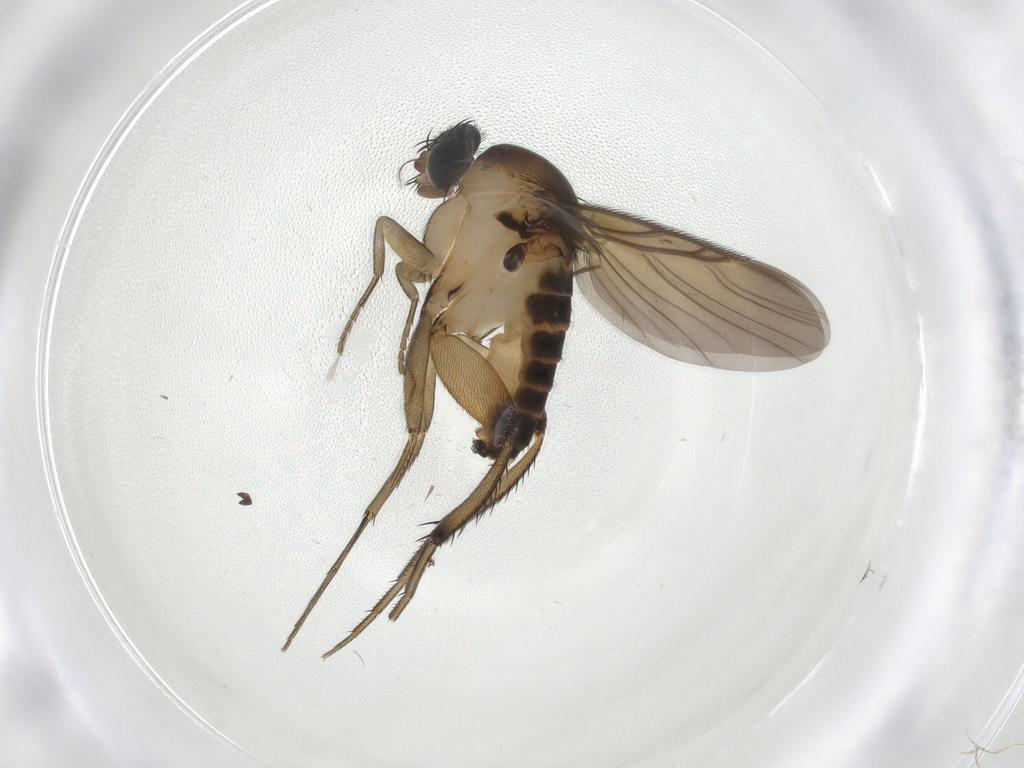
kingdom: Animalia
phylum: Arthropoda
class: Insecta
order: Diptera
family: Phoridae
